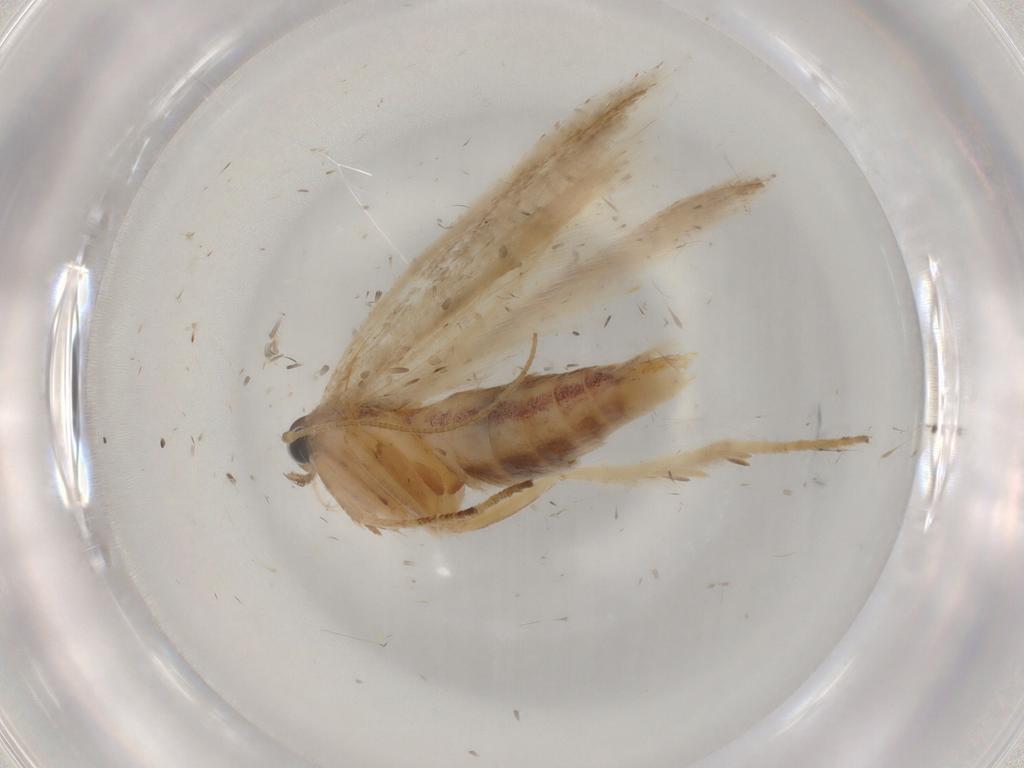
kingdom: Animalia
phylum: Arthropoda
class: Insecta
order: Lepidoptera
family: Gelechiidae
